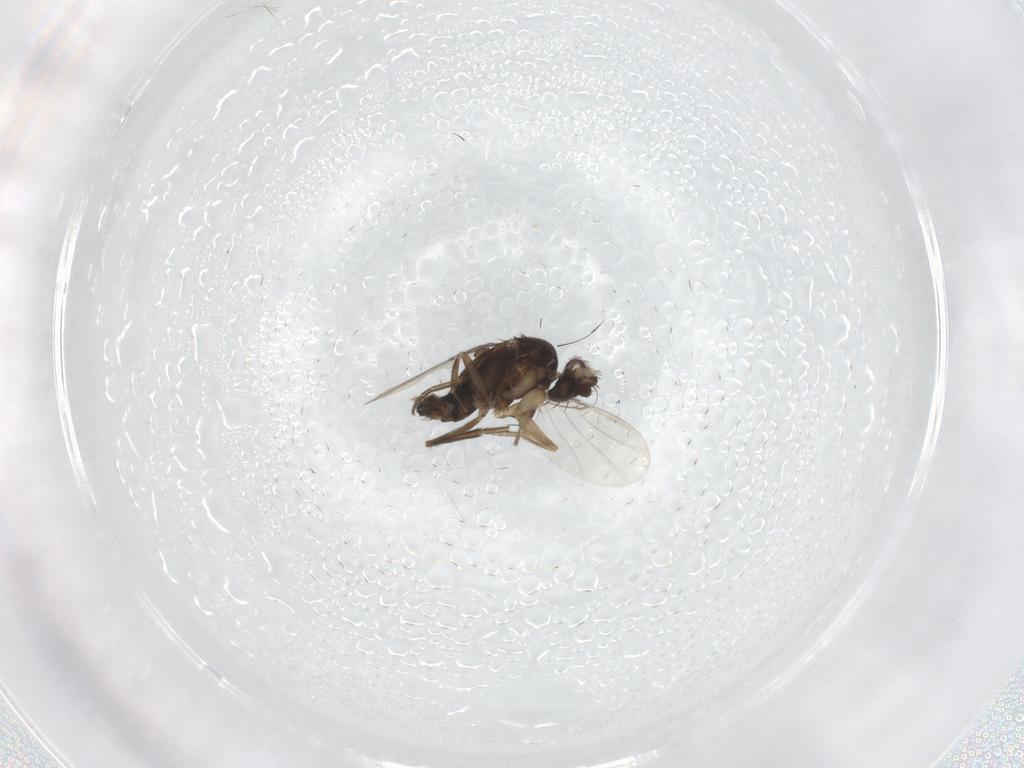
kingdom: Animalia
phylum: Arthropoda
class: Insecta
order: Diptera
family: Phoridae
